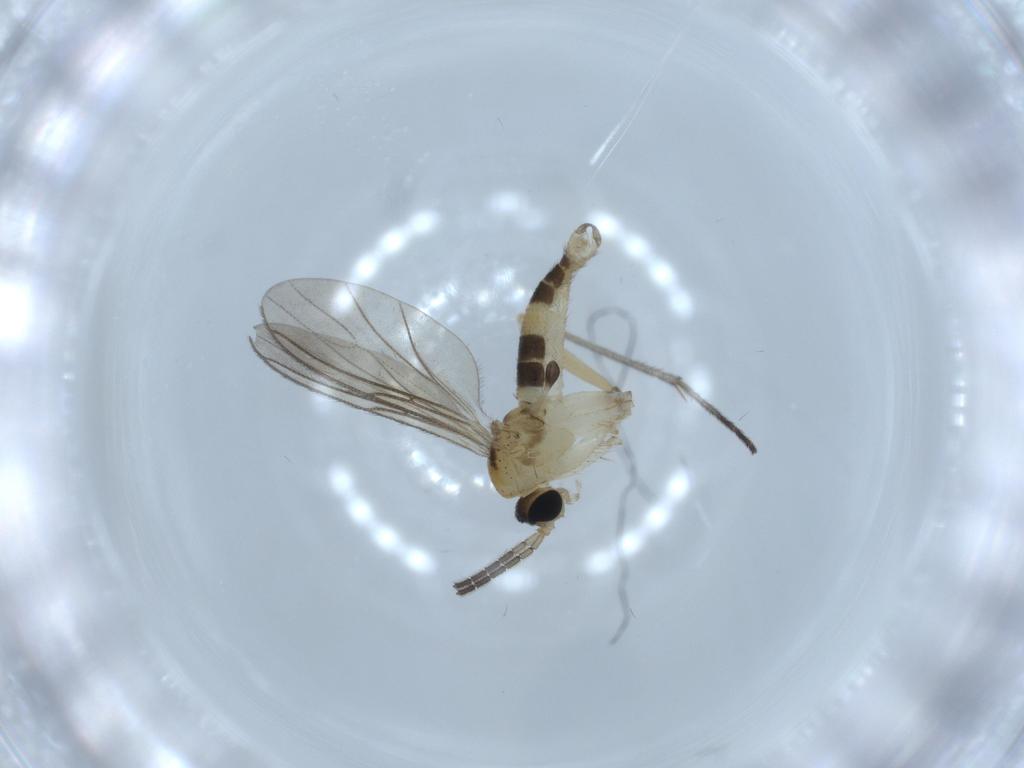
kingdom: Animalia
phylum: Arthropoda
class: Insecta
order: Diptera
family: Sciaridae
